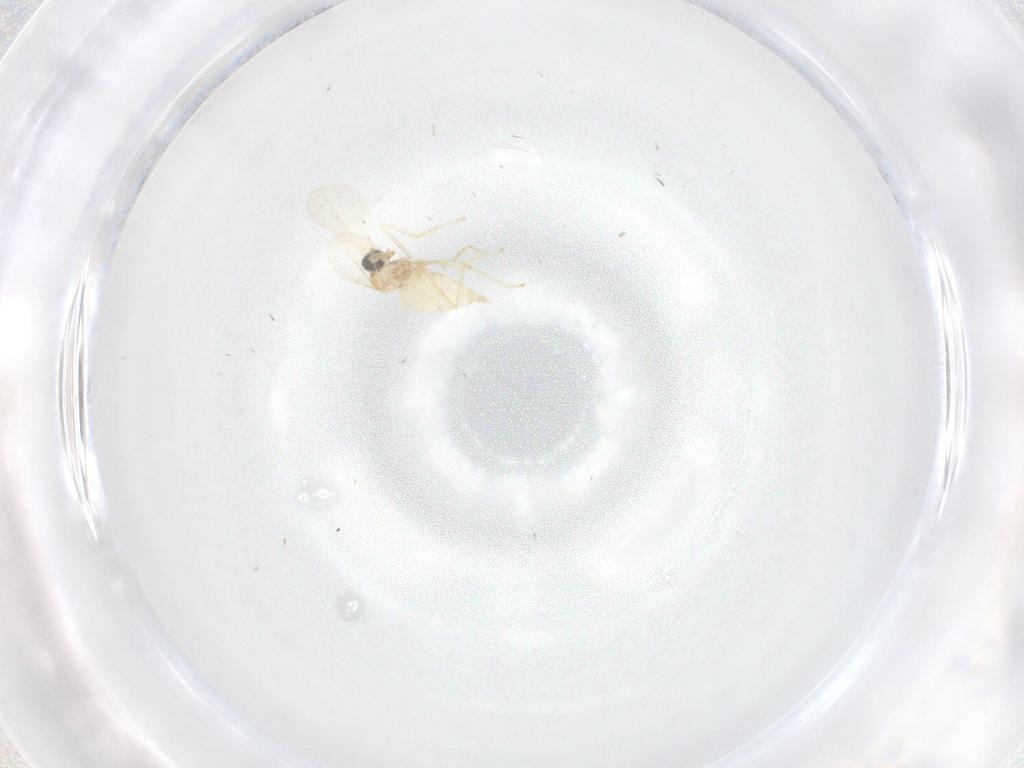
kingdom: Animalia
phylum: Arthropoda
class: Insecta
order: Diptera
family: Cecidomyiidae
